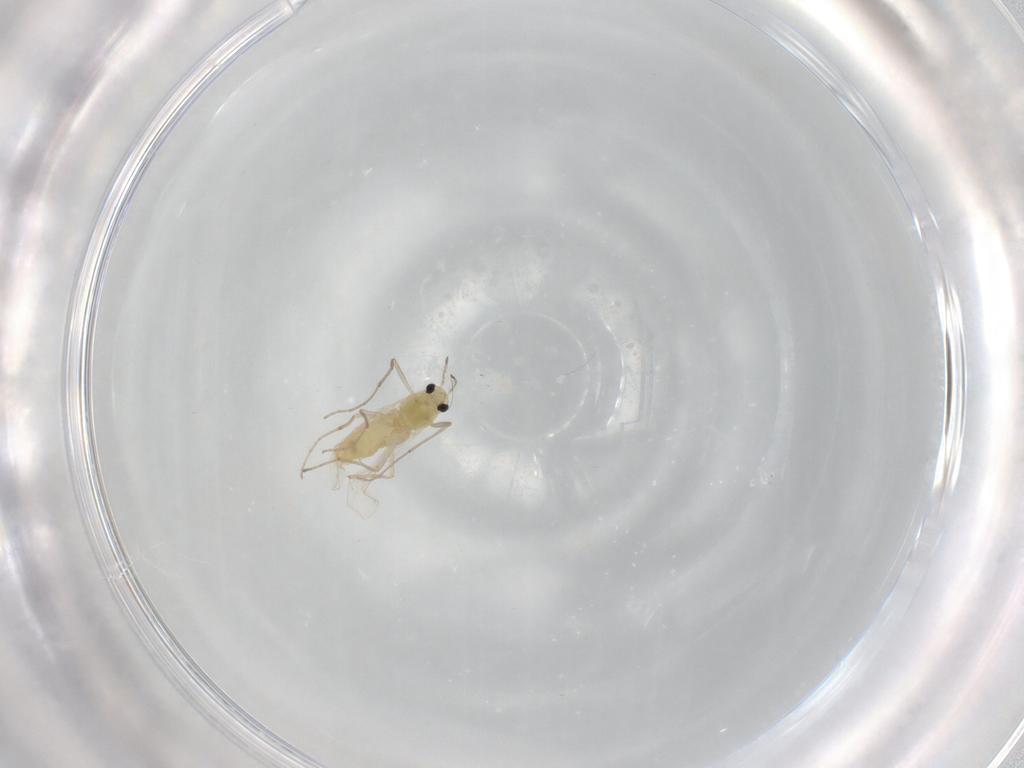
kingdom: Animalia
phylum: Arthropoda
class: Insecta
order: Diptera
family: Chironomidae
